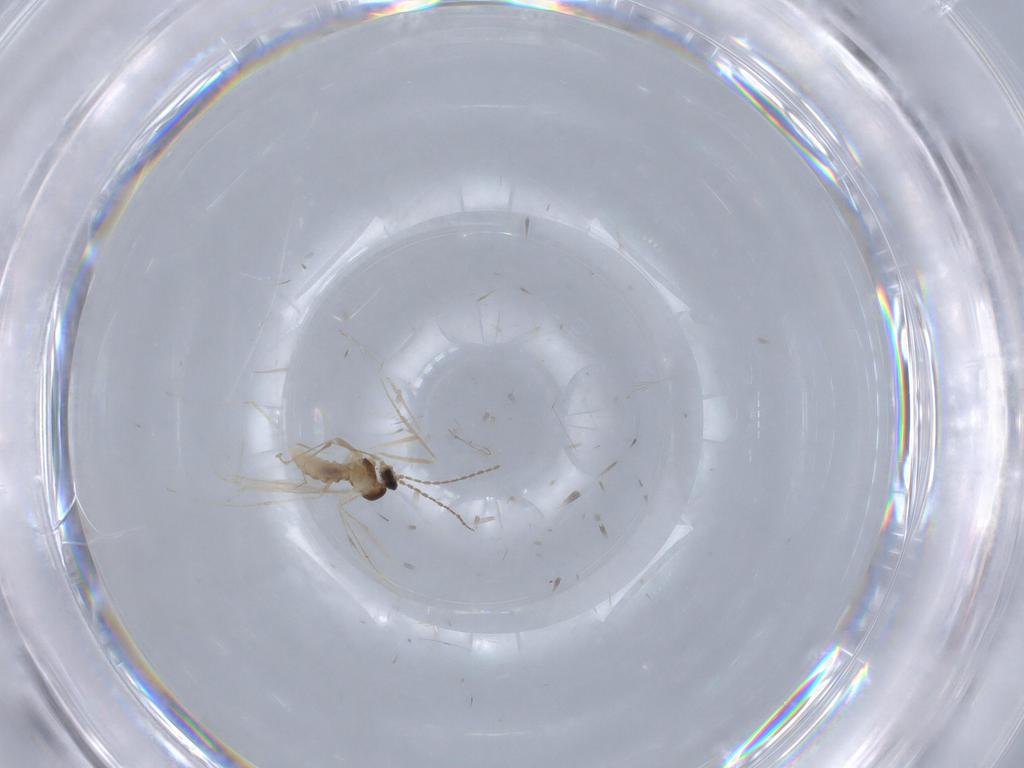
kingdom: Animalia
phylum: Arthropoda
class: Insecta
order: Diptera
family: Cecidomyiidae
